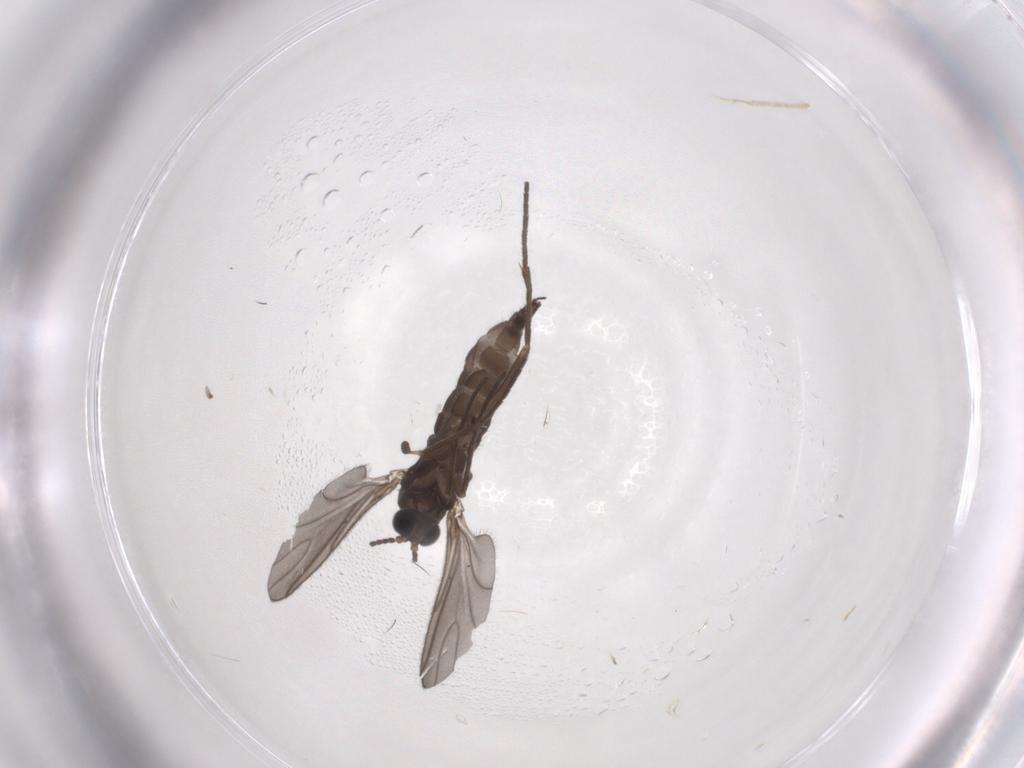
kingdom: Animalia
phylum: Arthropoda
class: Insecta
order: Diptera
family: Sciaridae
